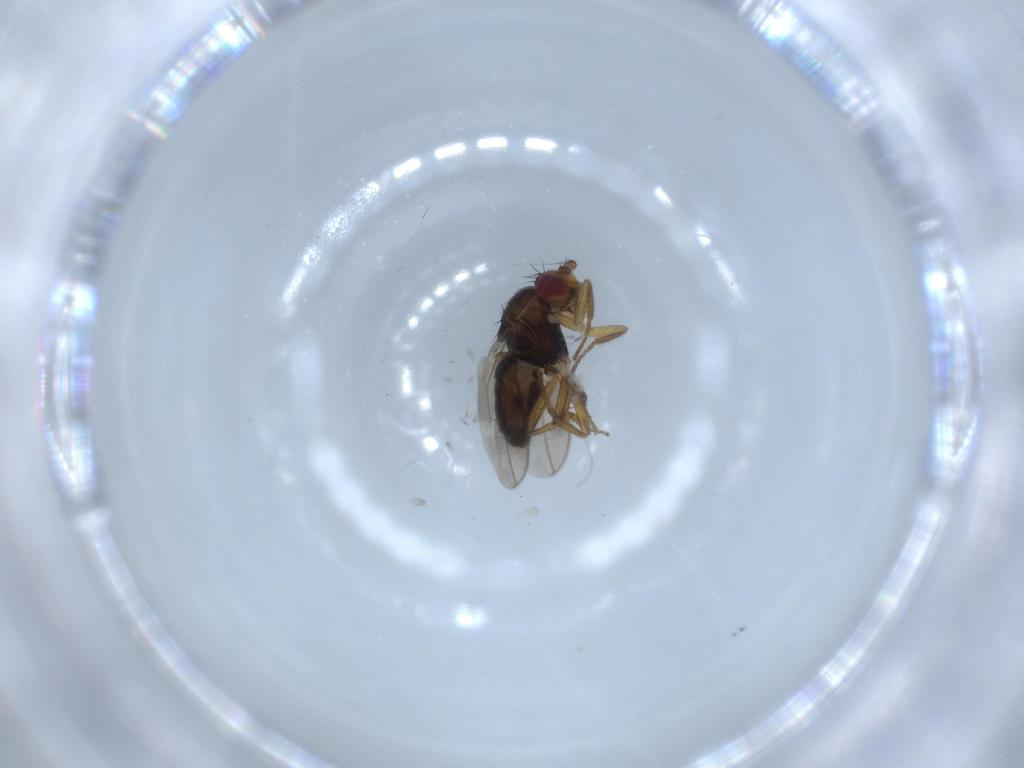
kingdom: Animalia
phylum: Arthropoda
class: Insecta
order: Diptera
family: Sphaeroceridae
